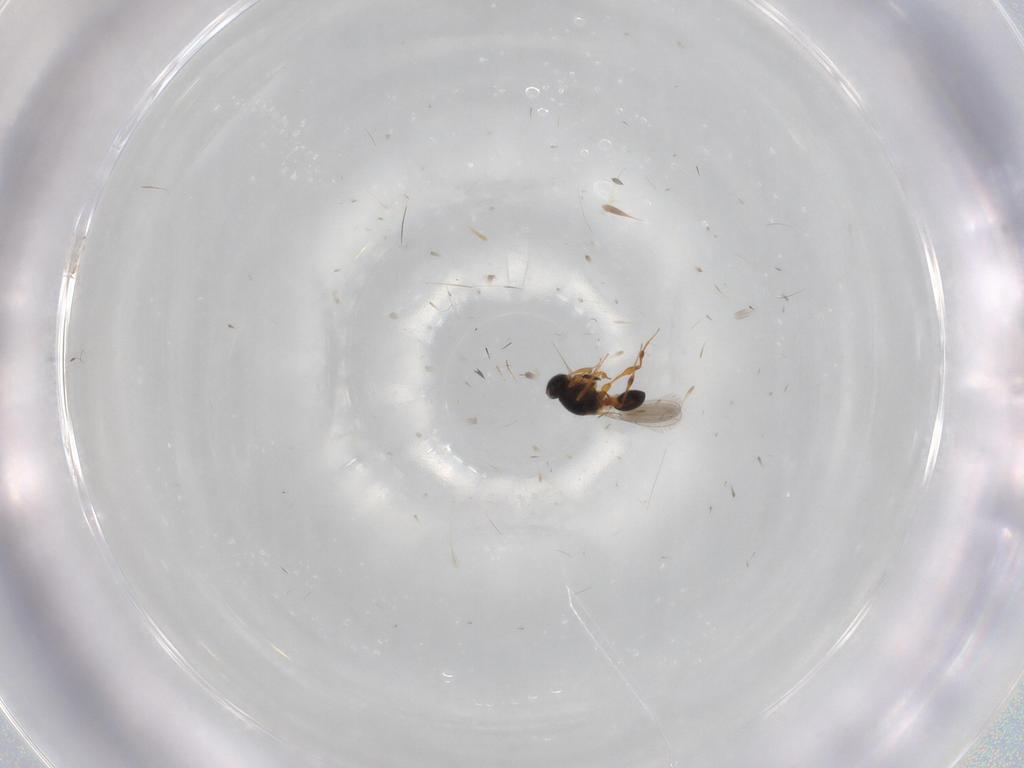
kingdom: Animalia
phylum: Arthropoda
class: Insecta
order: Hymenoptera
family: Platygastridae
